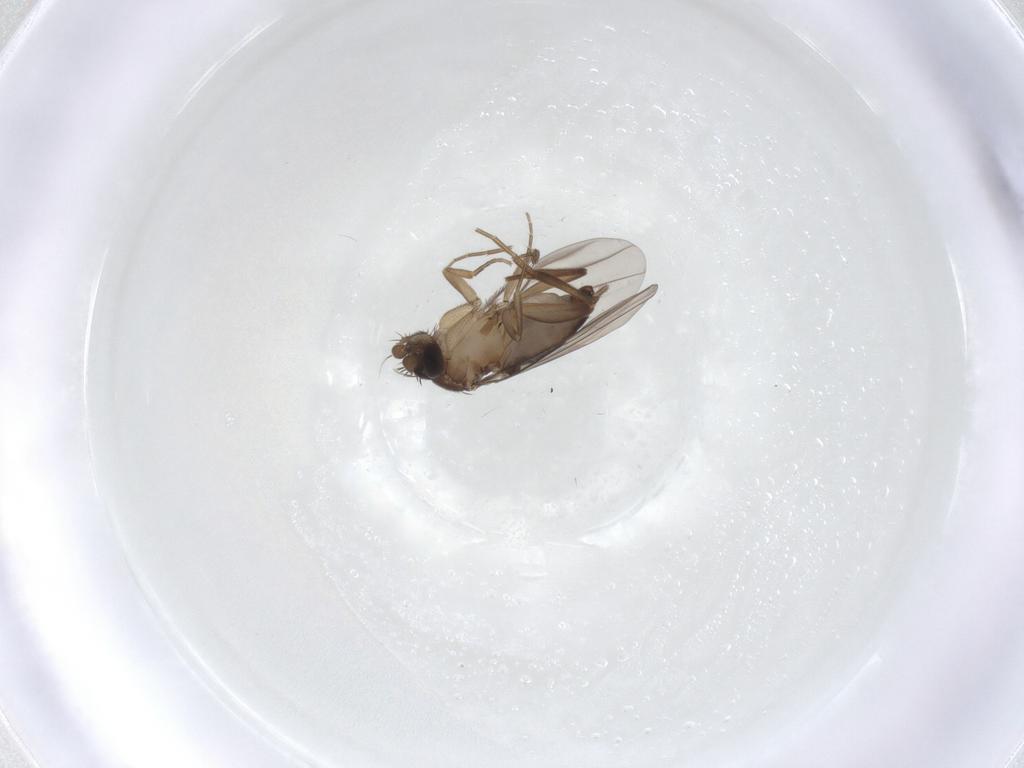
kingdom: Animalia
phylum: Arthropoda
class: Insecta
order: Diptera
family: Phoridae
